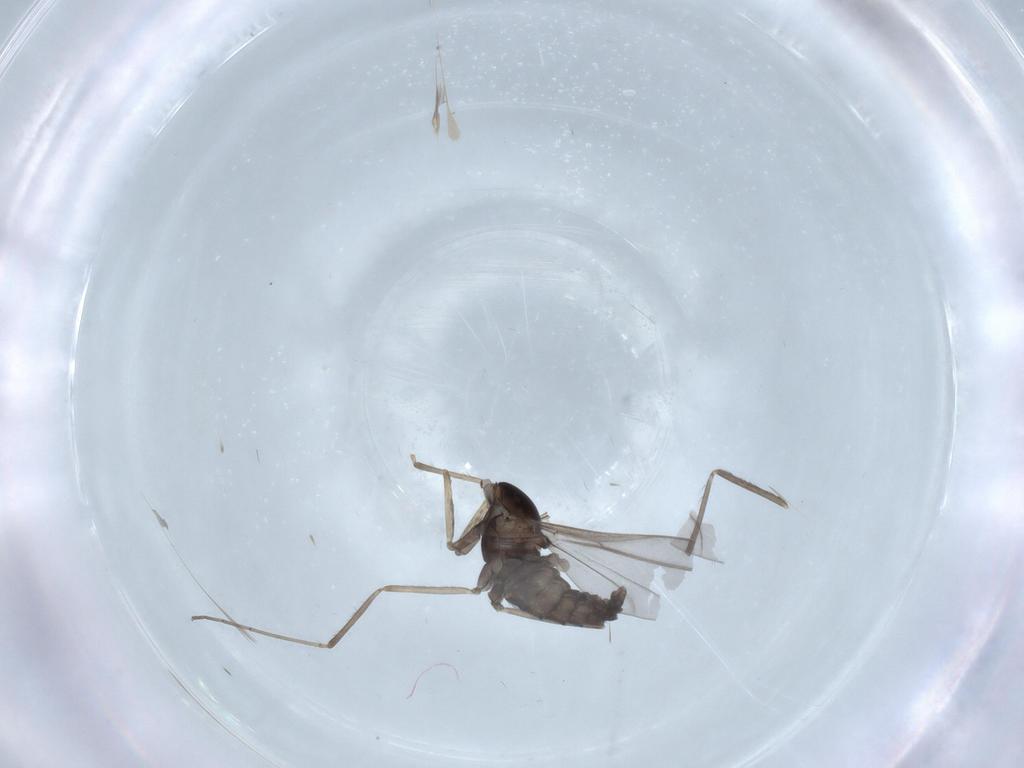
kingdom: Animalia
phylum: Arthropoda
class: Insecta
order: Diptera
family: Cecidomyiidae
